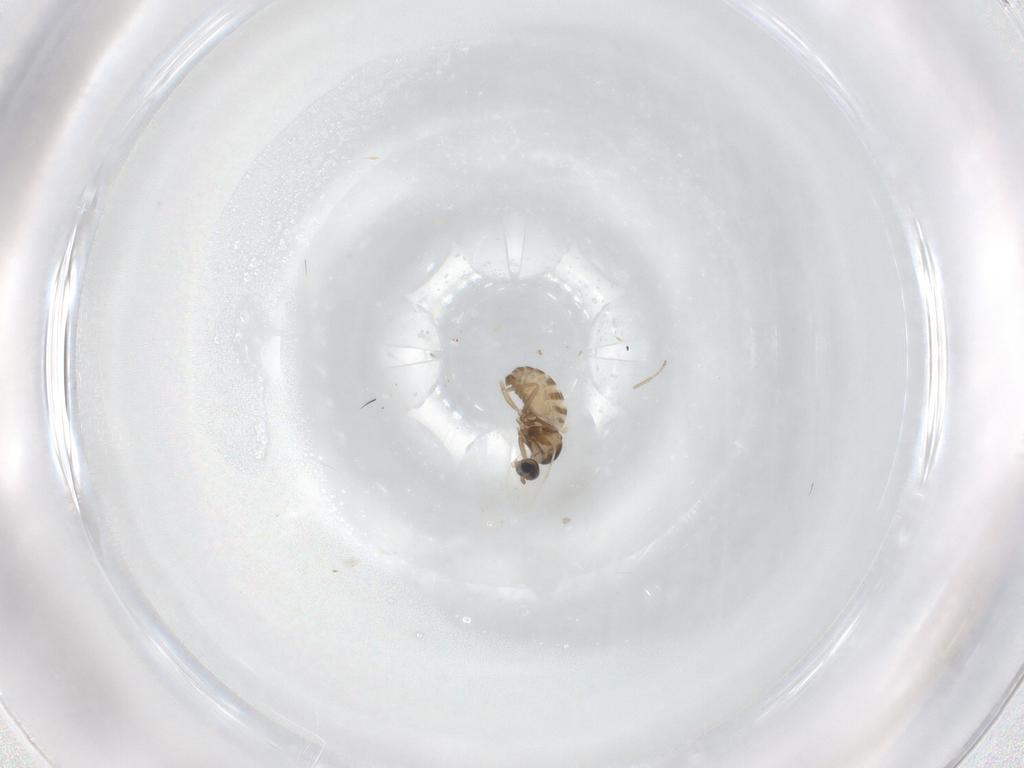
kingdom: Animalia
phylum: Arthropoda
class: Insecta
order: Diptera
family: Cecidomyiidae
